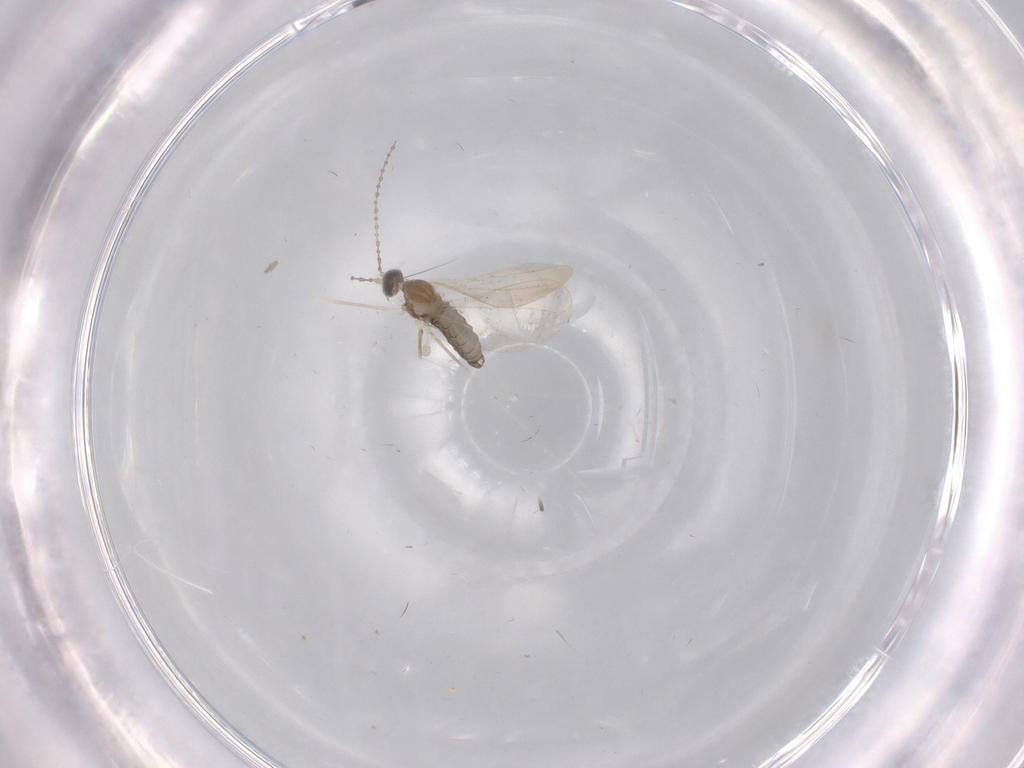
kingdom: Animalia
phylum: Arthropoda
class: Insecta
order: Diptera
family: Cecidomyiidae
